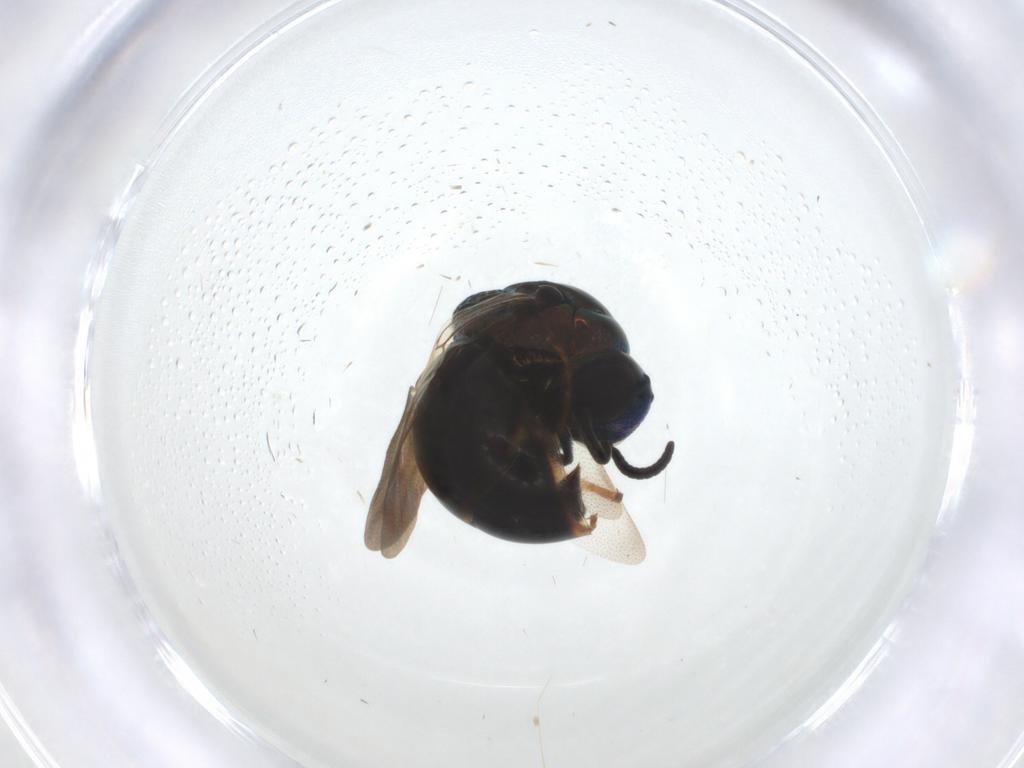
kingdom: Animalia
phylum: Arthropoda
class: Insecta
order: Hymenoptera
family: Chrysididae
